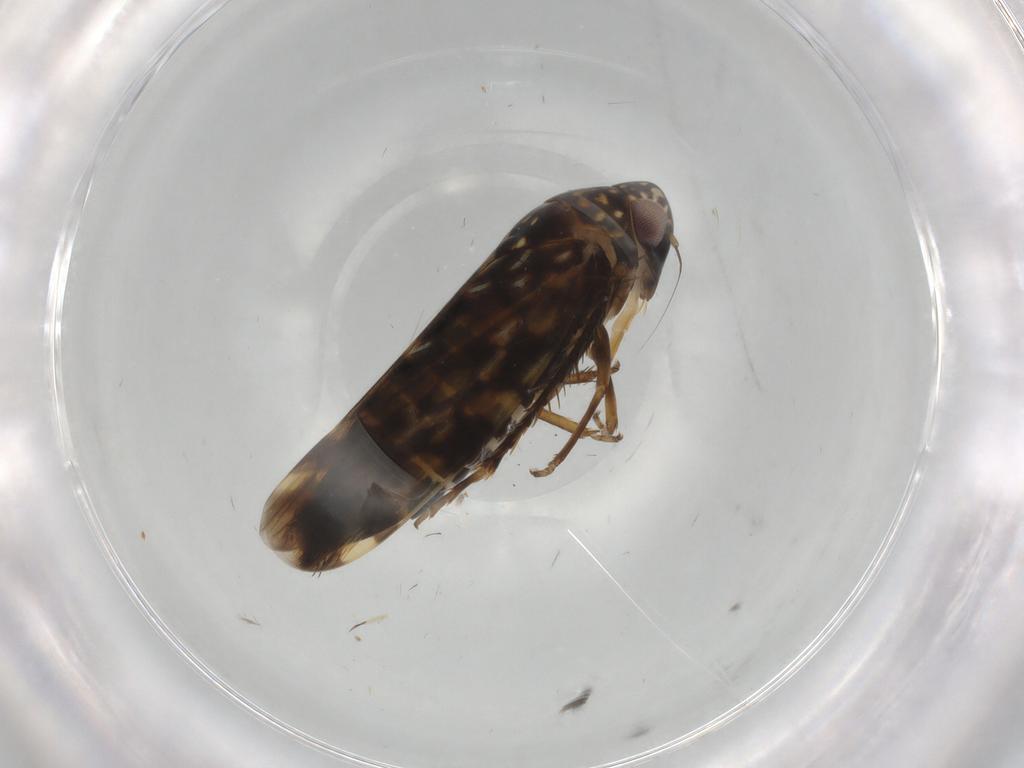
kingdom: Animalia
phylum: Arthropoda
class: Insecta
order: Hemiptera
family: Cicadellidae
